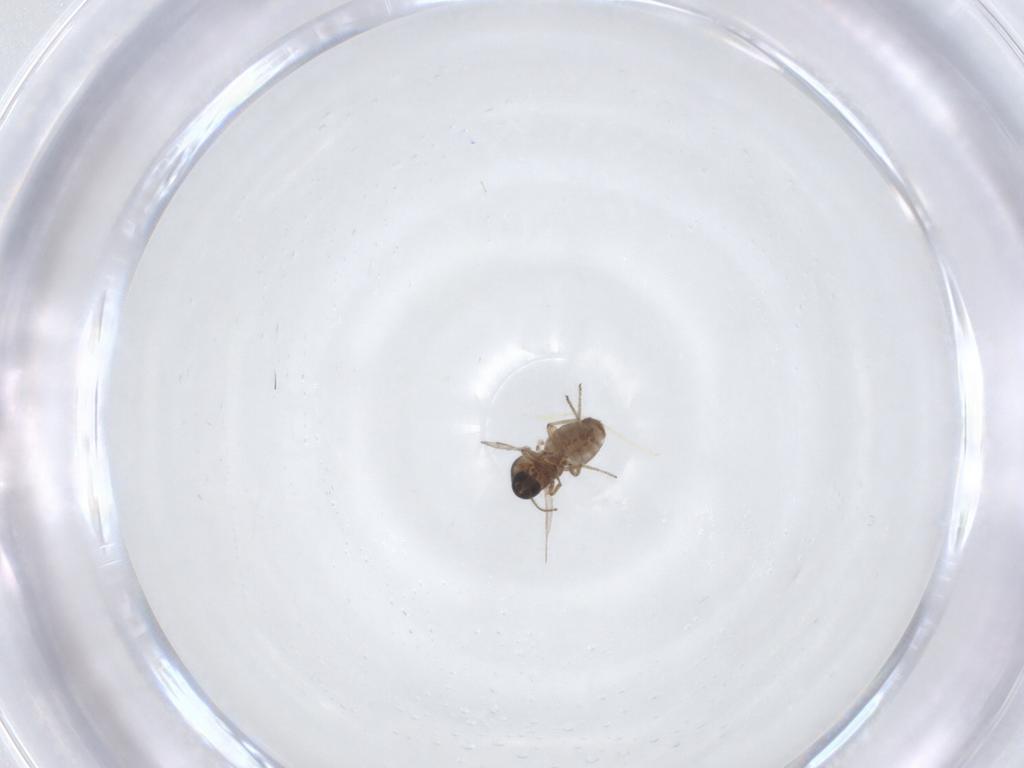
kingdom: Animalia
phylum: Arthropoda
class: Insecta
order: Diptera
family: Ceratopogonidae
